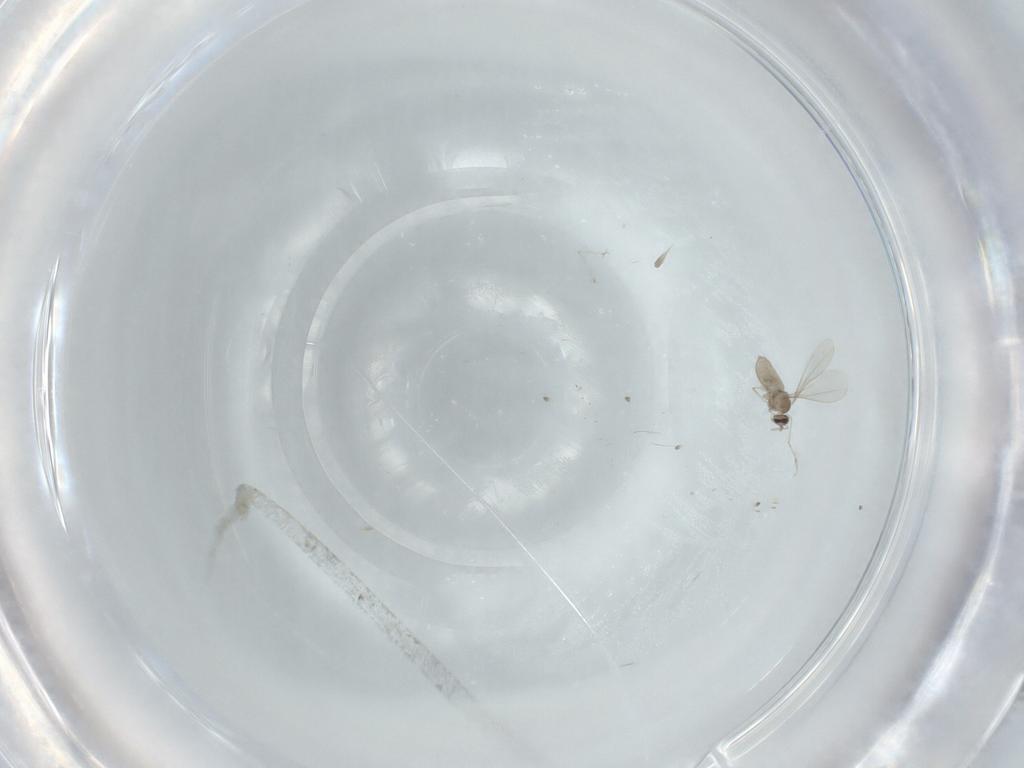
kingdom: Animalia
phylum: Arthropoda
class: Insecta
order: Diptera
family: Cecidomyiidae
